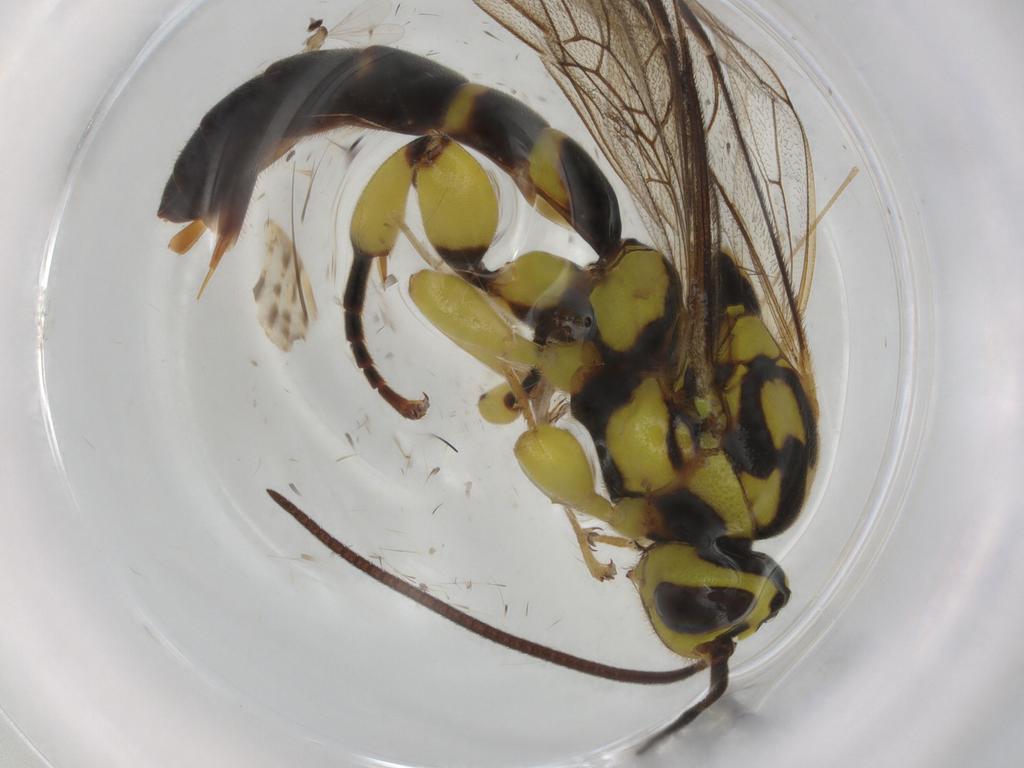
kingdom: Animalia
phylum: Arthropoda
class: Insecta
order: Diptera
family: Limoniidae
